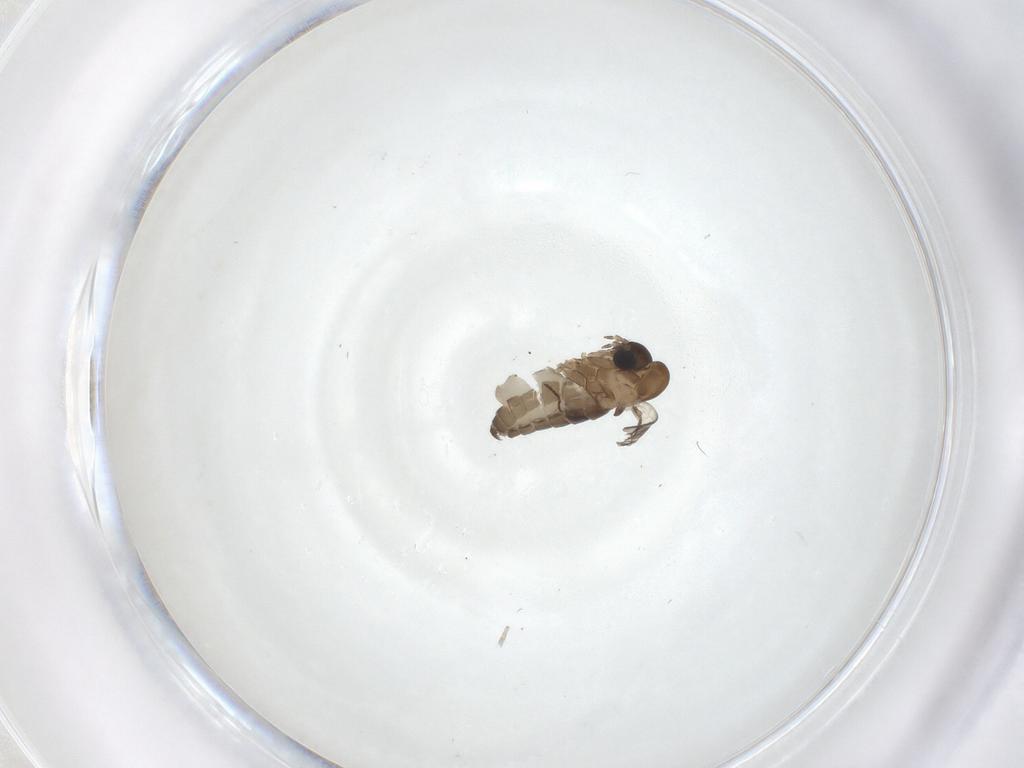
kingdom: Animalia
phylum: Arthropoda
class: Insecta
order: Diptera
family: Psychodidae
